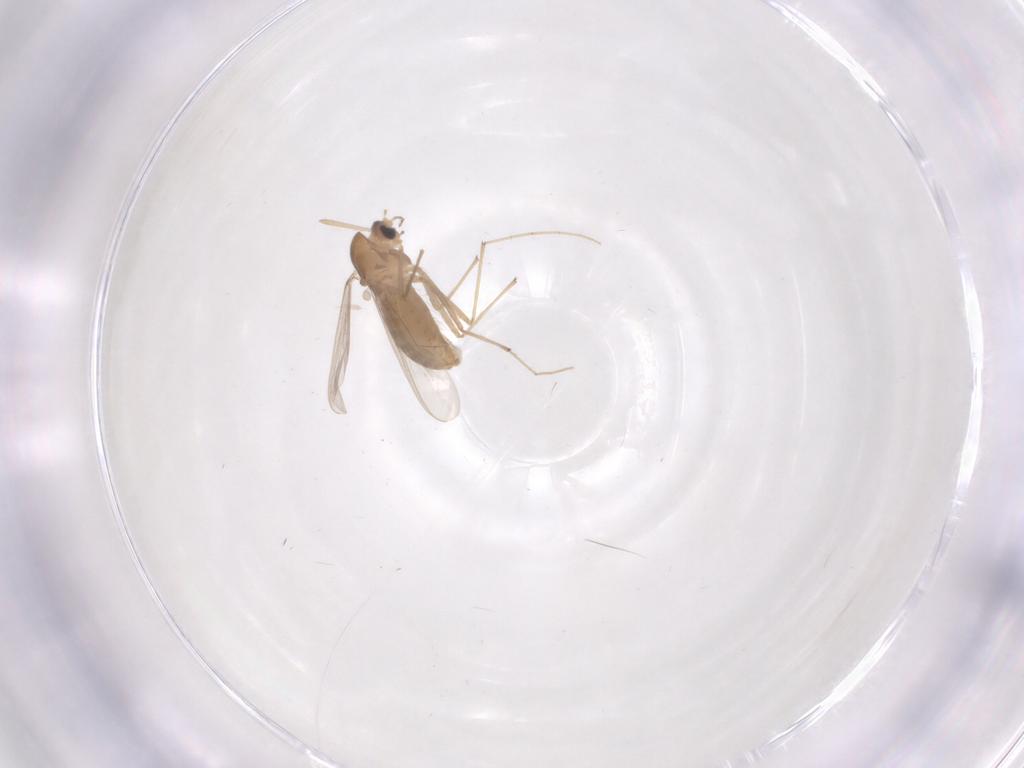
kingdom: Animalia
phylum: Arthropoda
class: Insecta
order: Diptera
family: Chironomidae
